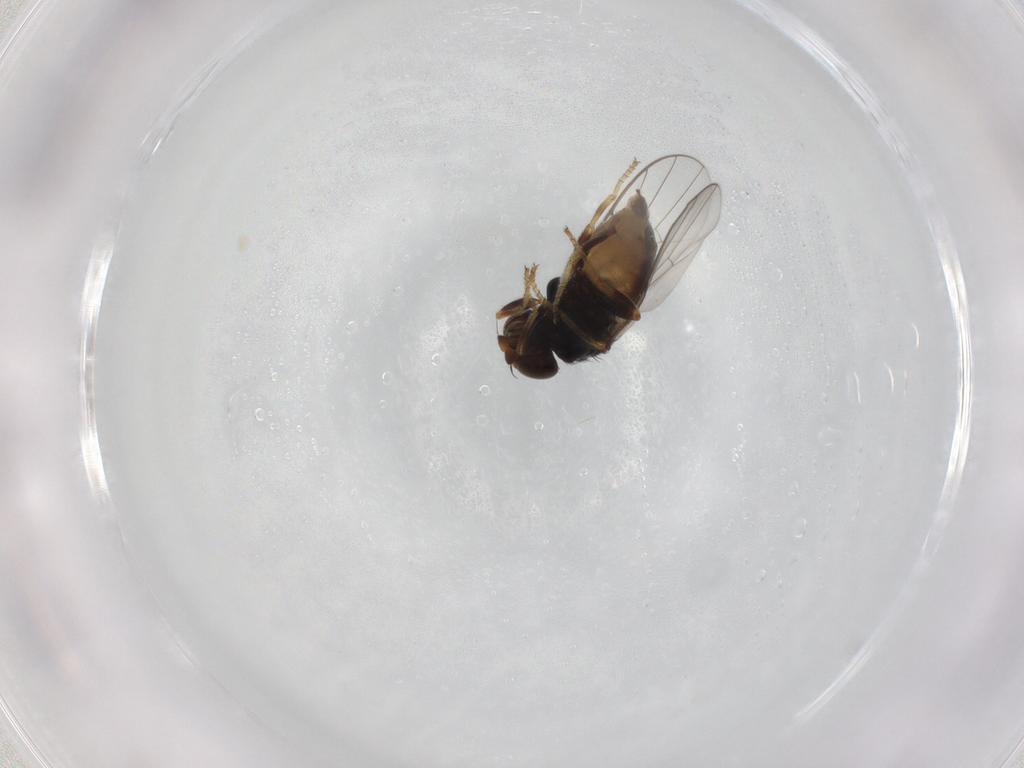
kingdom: Animalia
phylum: Arthropoda
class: Insecta
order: Diptera
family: Chloropidae
